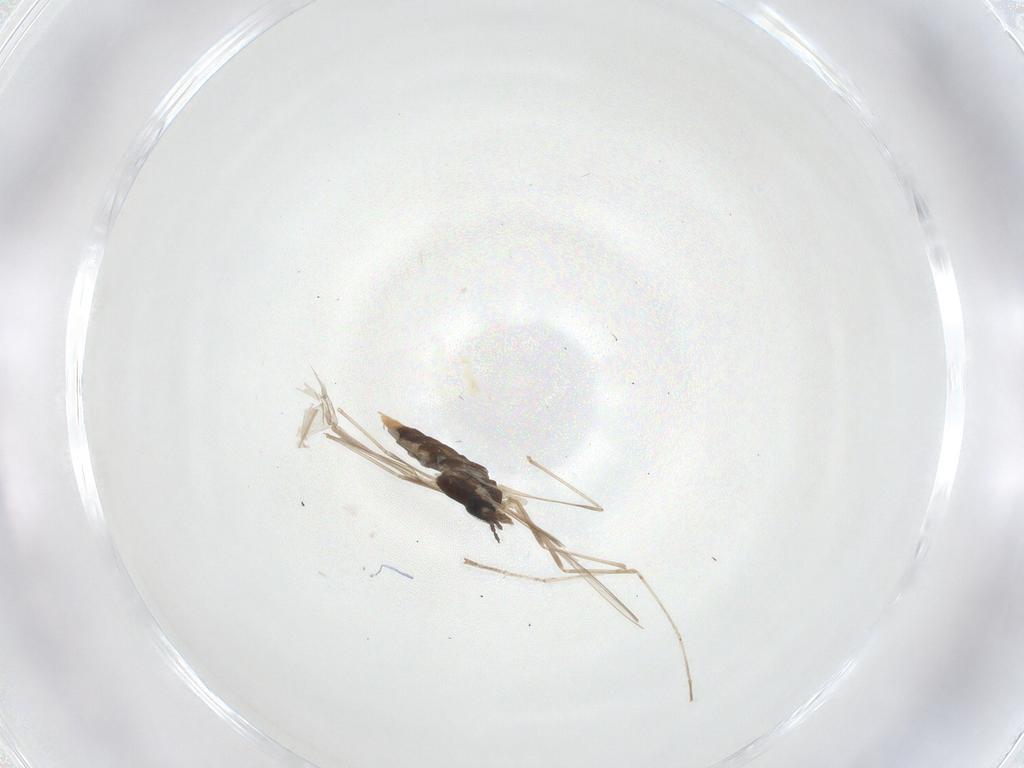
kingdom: Animalia
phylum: Arthropoda
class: Insecta
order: Diptera
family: Cecidomyiidae
